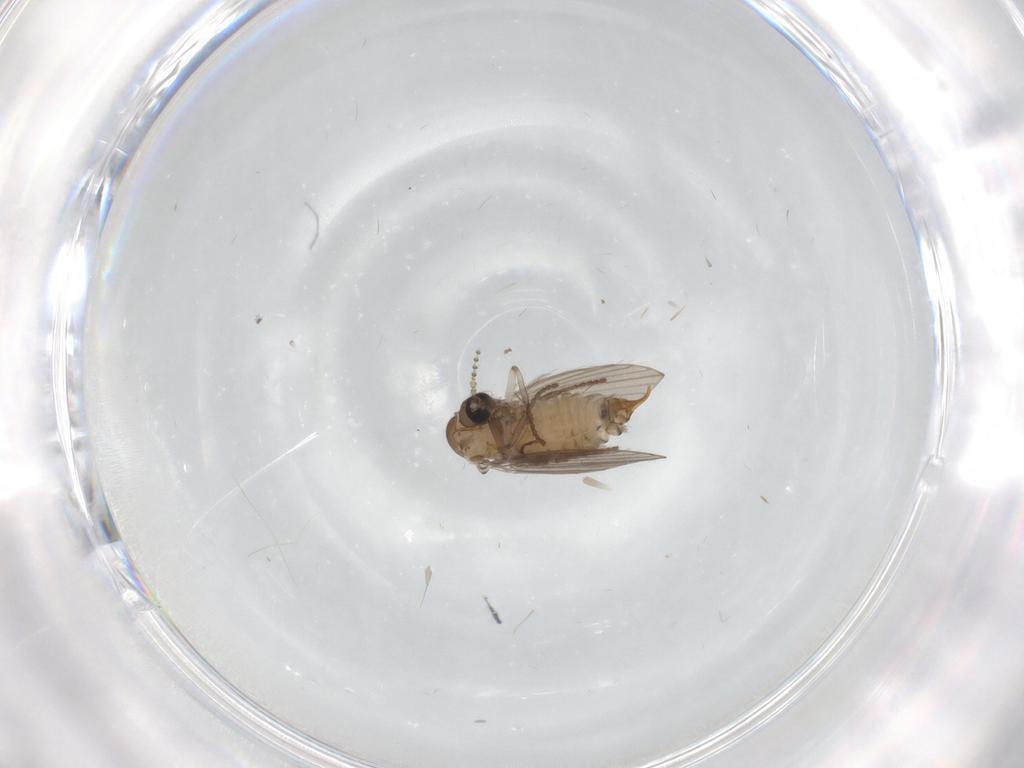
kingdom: Animalia
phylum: Arthropoda
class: Insecta
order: Diptera
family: Psychodidae
